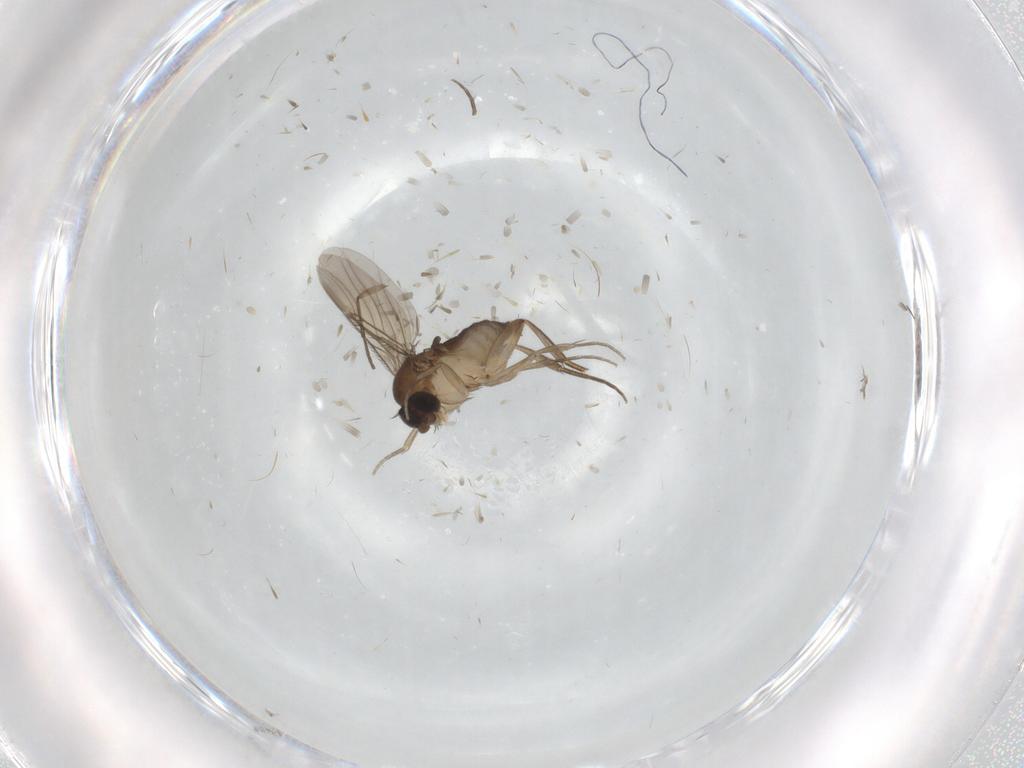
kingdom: Animalia
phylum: Arthropoda
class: Insecta
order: Diptera
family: Phoridae
